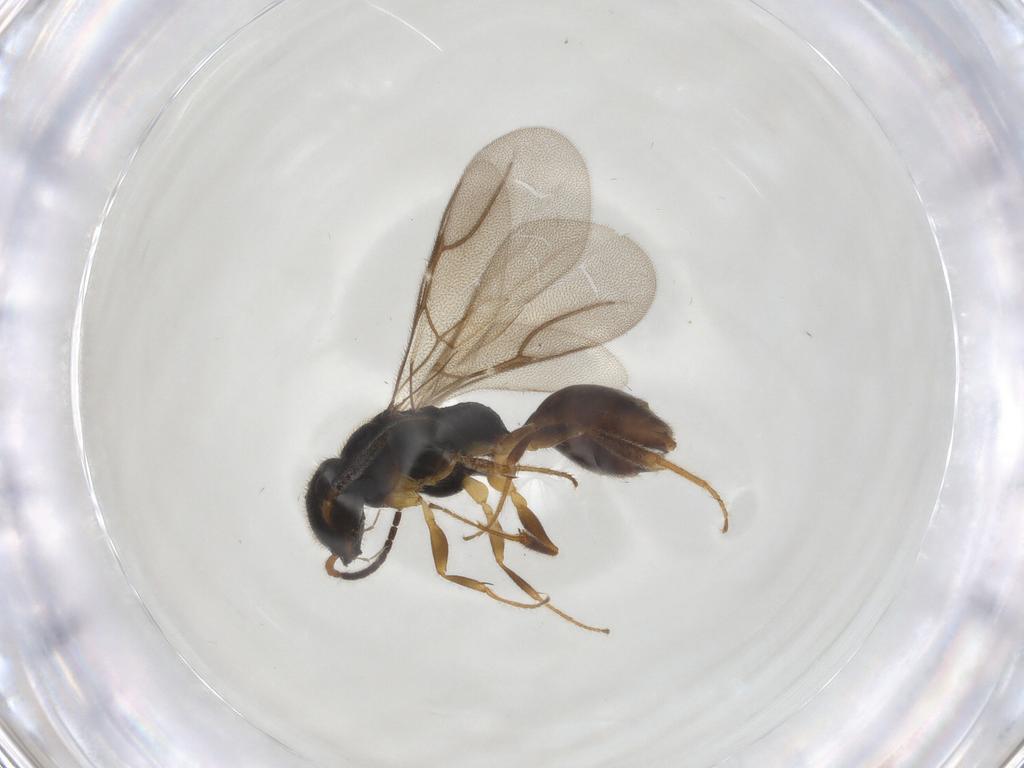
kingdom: Animalia
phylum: Arthropoda
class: Insecta
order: Hymenoptera
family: Bethylidae
